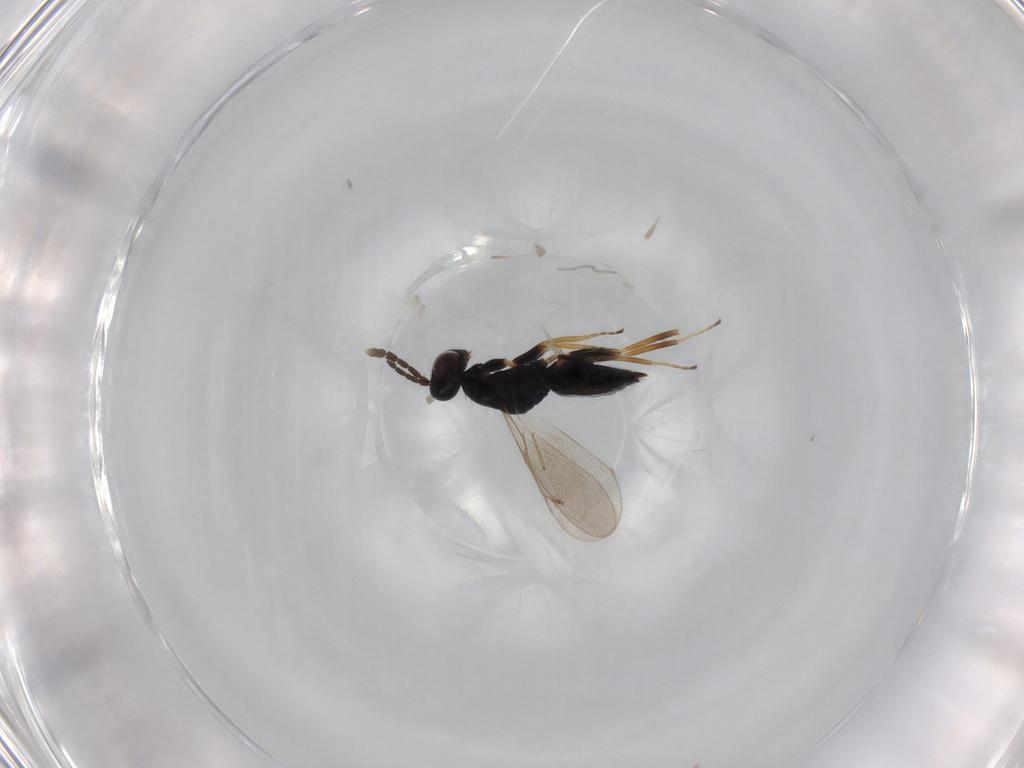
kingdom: Animalia
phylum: Arthropoda
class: Insecta
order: Hymenoptera
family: Eulophidae
